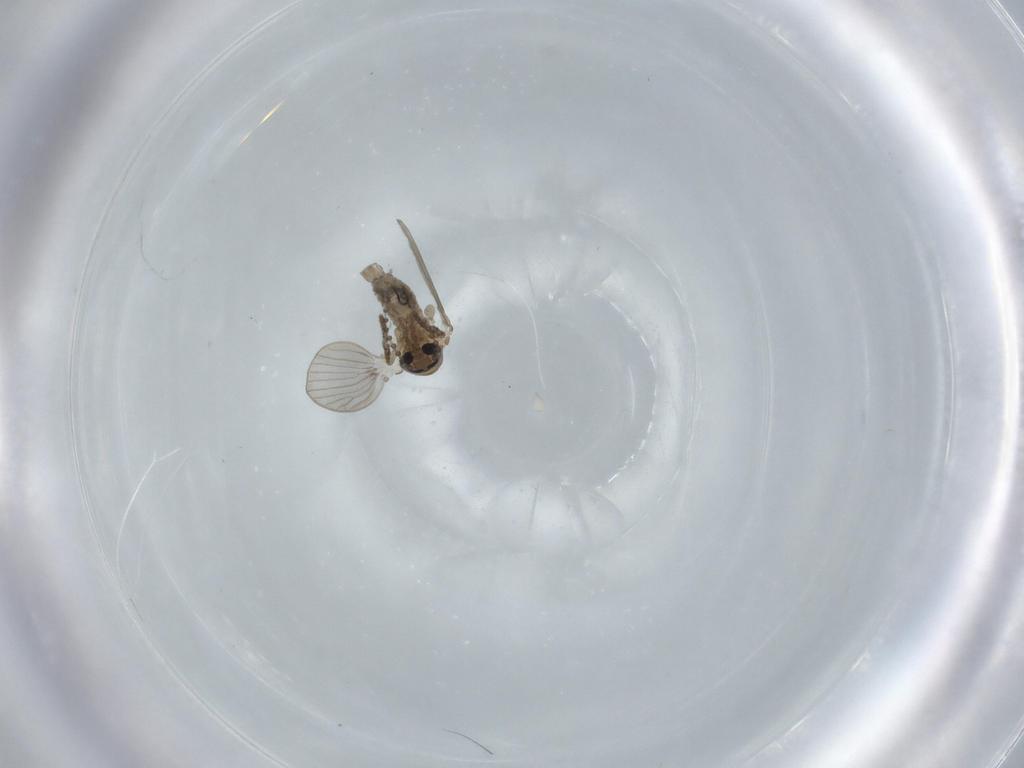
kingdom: Animalia
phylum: Arthropoda
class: Insecta
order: Diptera
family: Psychodidae
